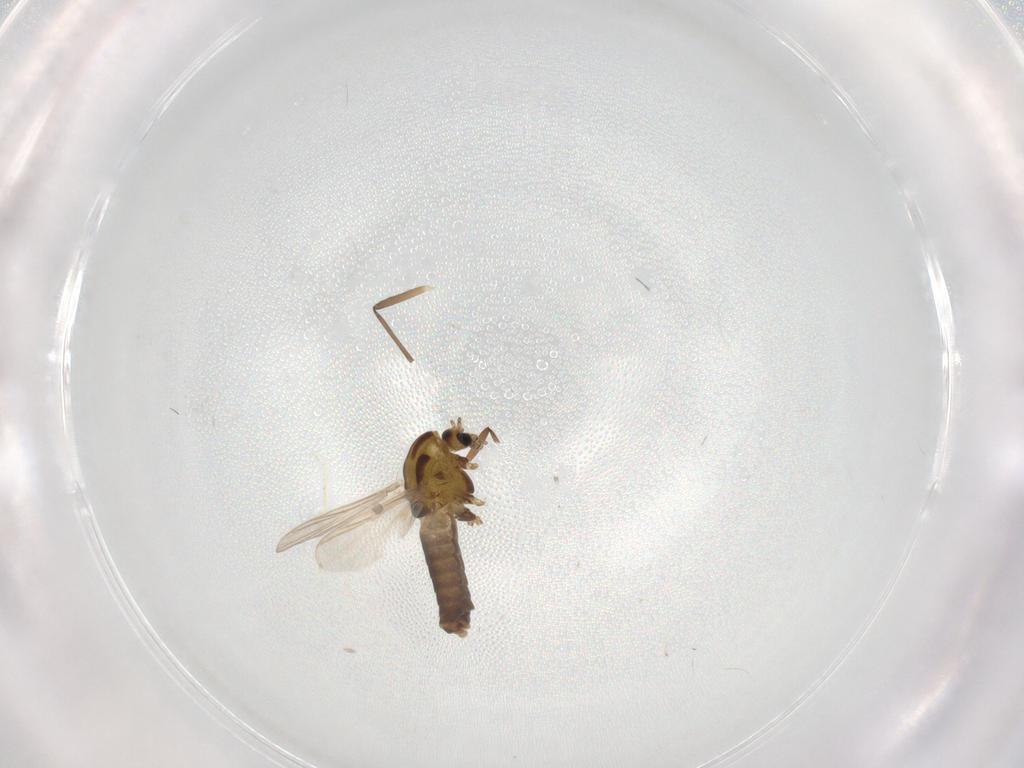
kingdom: Animalia
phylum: Arthropoda
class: Insecta
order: Diptera
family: Chironomidae
